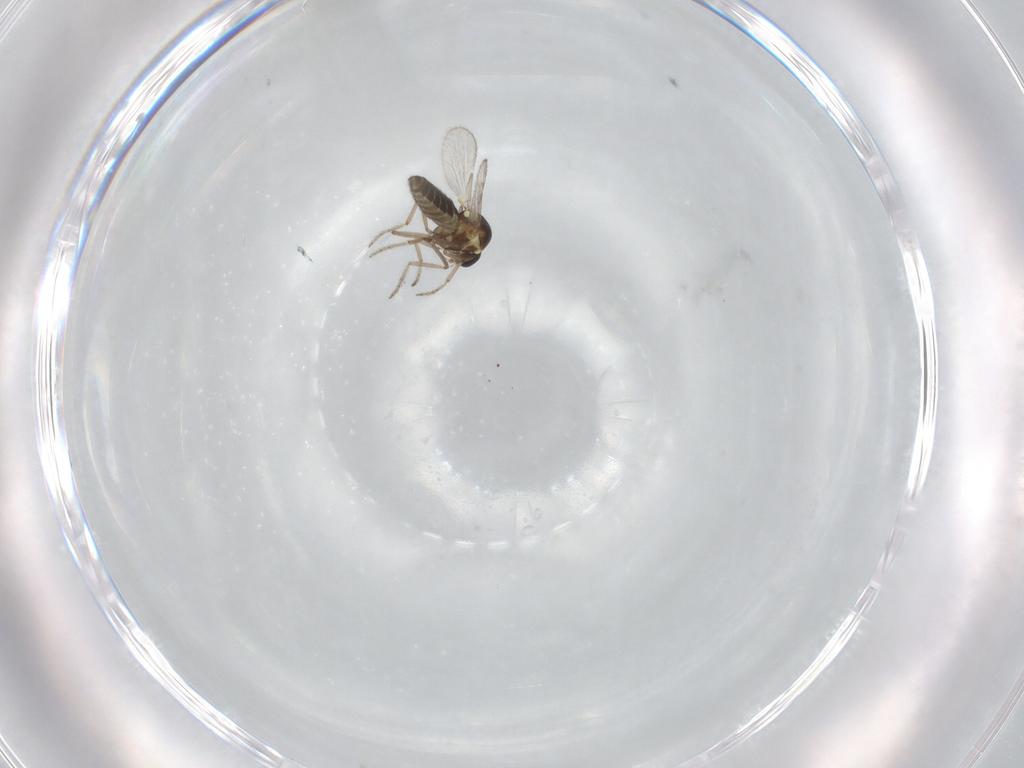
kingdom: Animalia
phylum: Arthropoda
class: Insecta
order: Diptera
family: Ceratopogonidae
